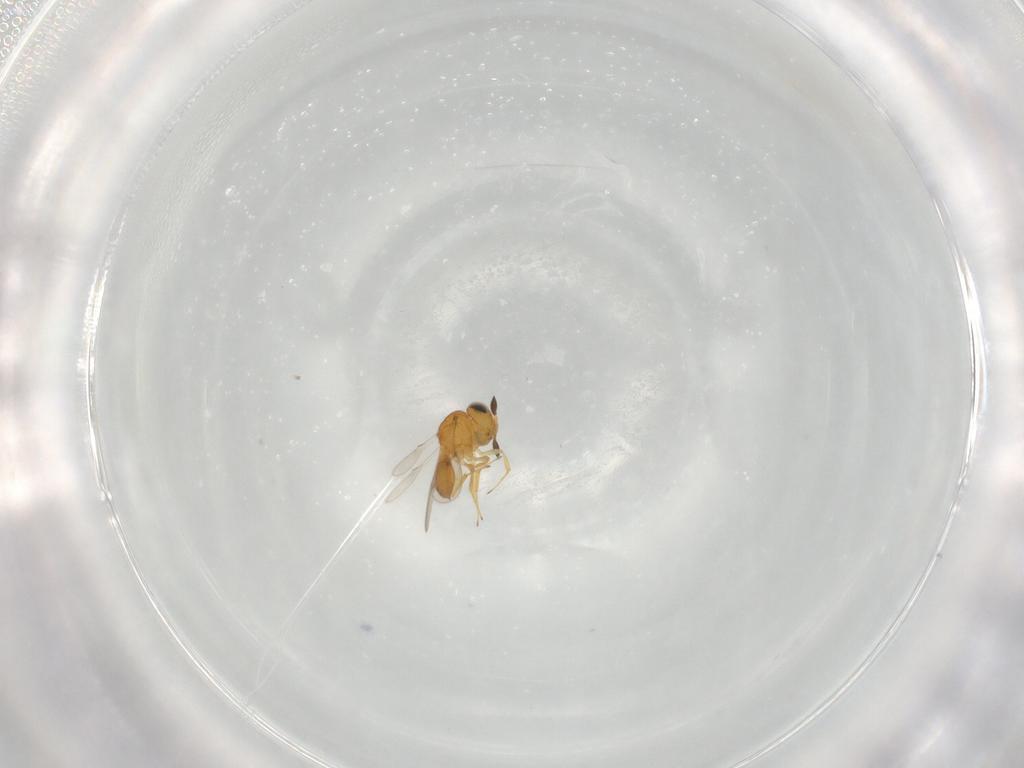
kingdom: Animalia
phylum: Arthropoda
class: Insecta
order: Hymenoptera
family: Scelionidae
